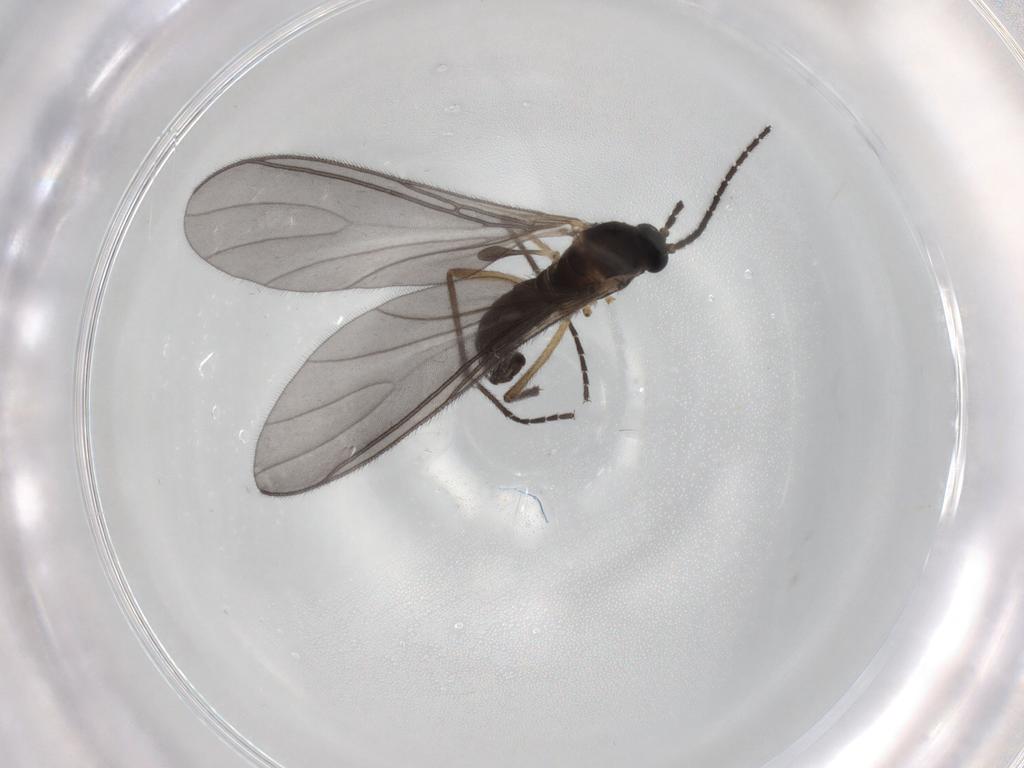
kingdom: Animalia
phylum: Arthropoda
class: Insecta
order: Diptera
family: Sciaridae
